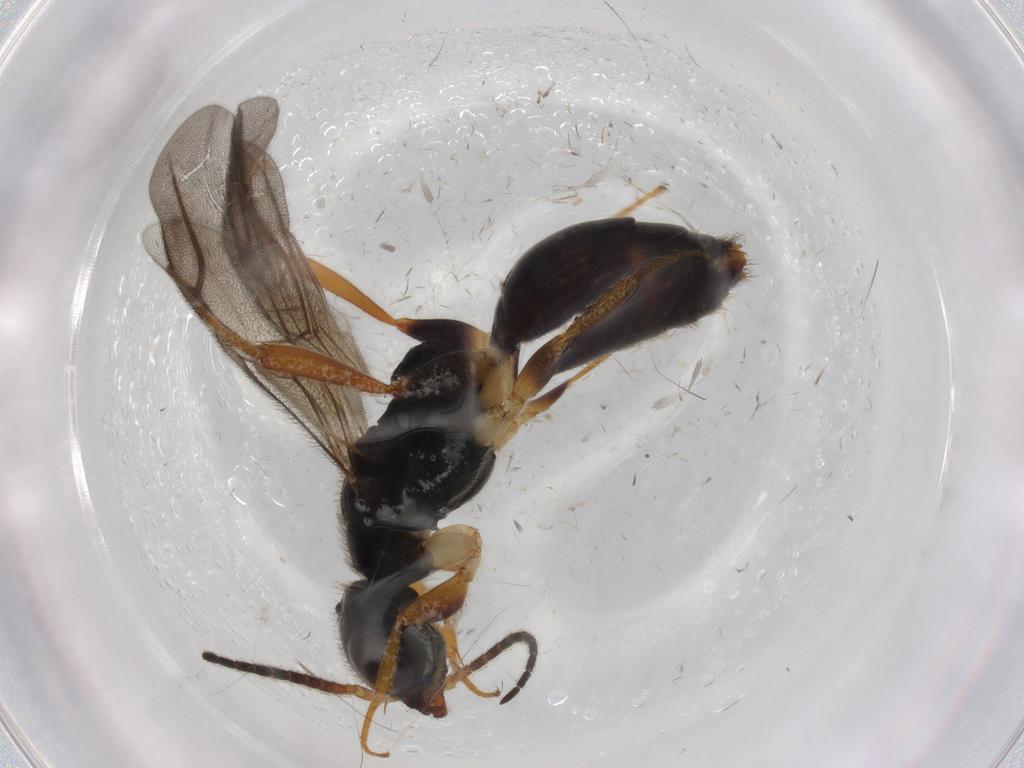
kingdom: Animalia
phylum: Arthropoda
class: Insecta
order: Hymenoptera
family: Bethylidae
